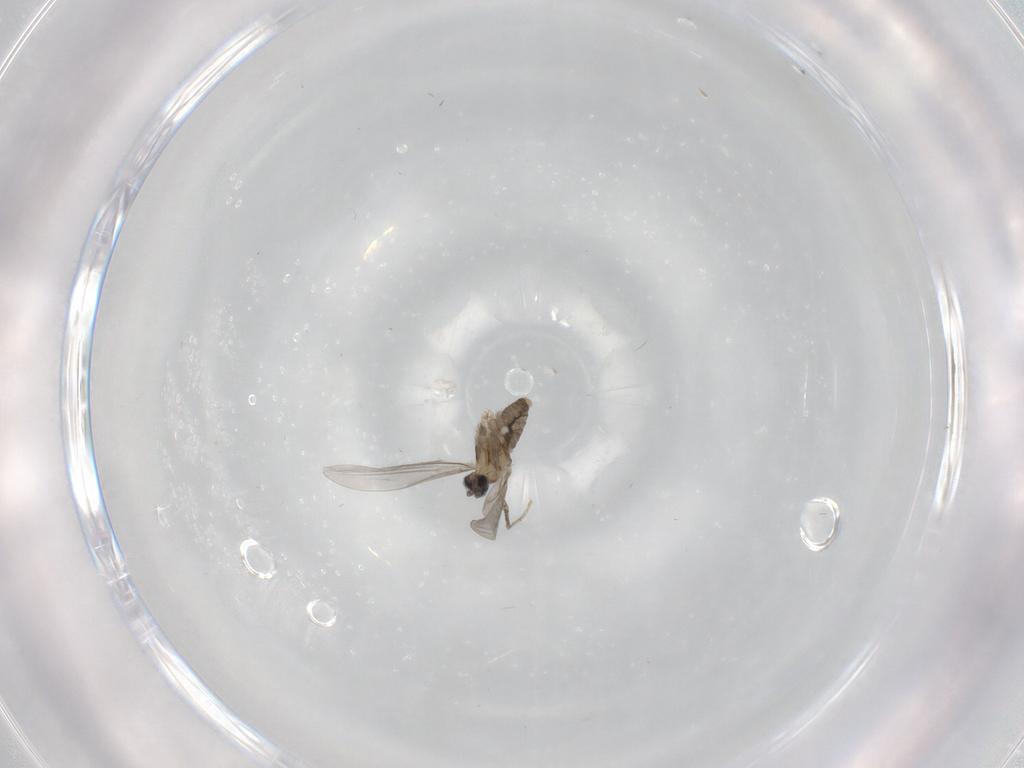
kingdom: Animalia
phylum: Arthropoda
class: Insecta
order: Diptera
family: Cecidomyiidae
